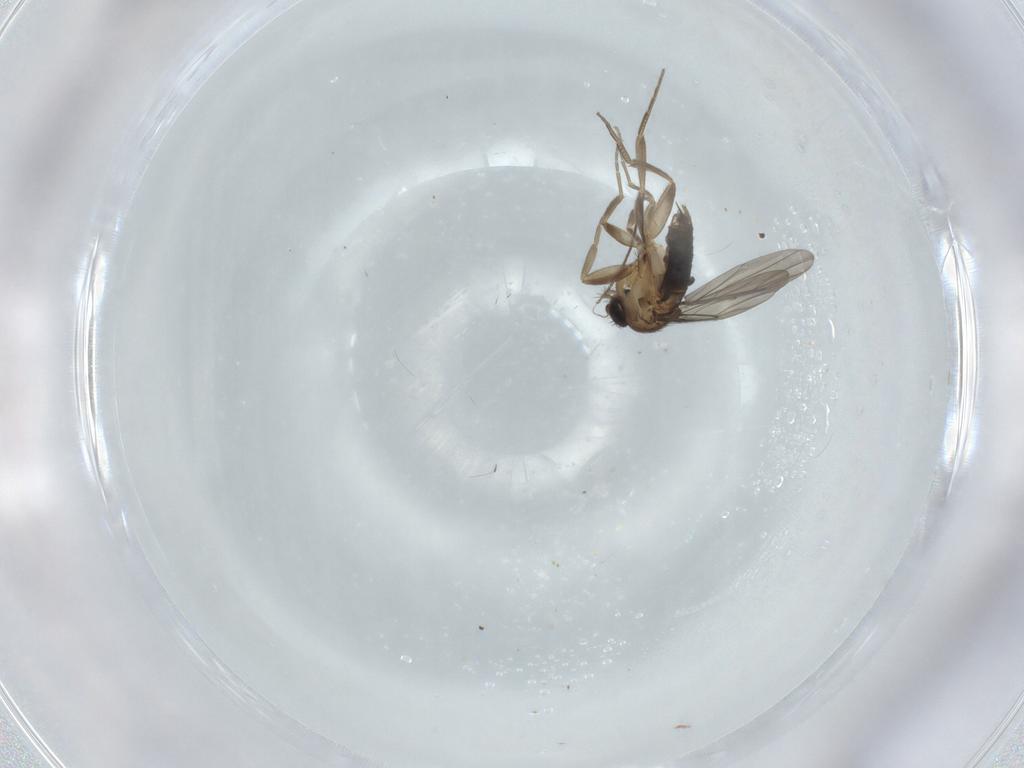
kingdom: Animalia
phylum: Arthropoda
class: Insecta
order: Diptera
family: Phoridae
